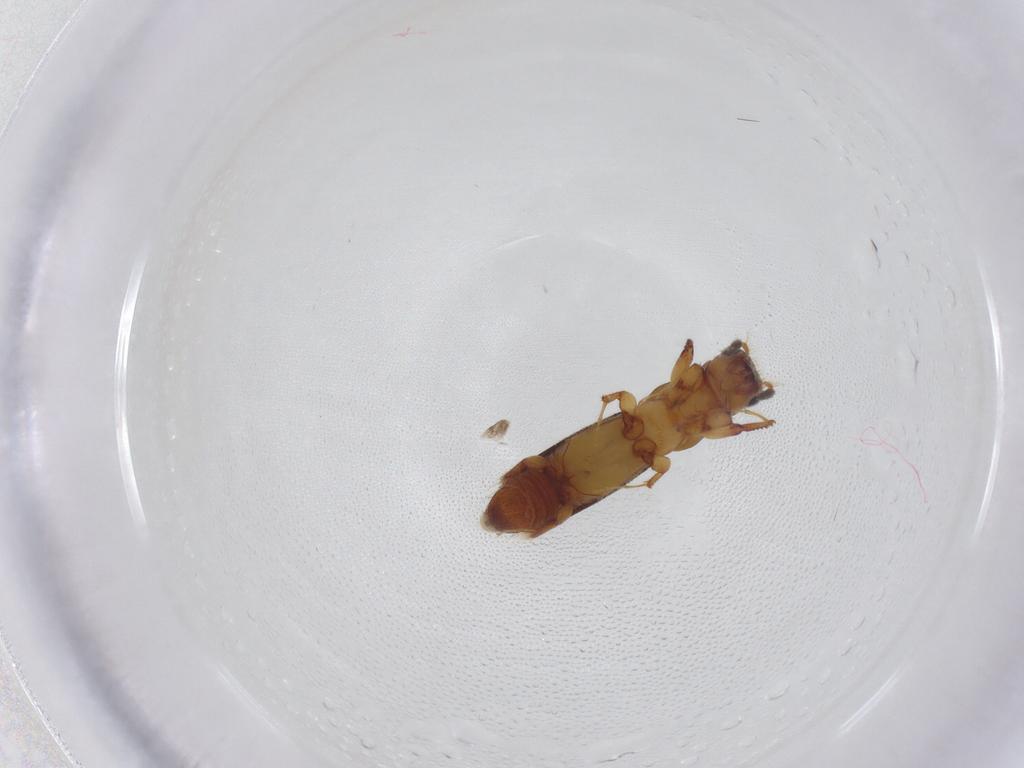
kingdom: Animalia
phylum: Arthropoda
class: Insecta
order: Coleoptera
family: Curculionidae
